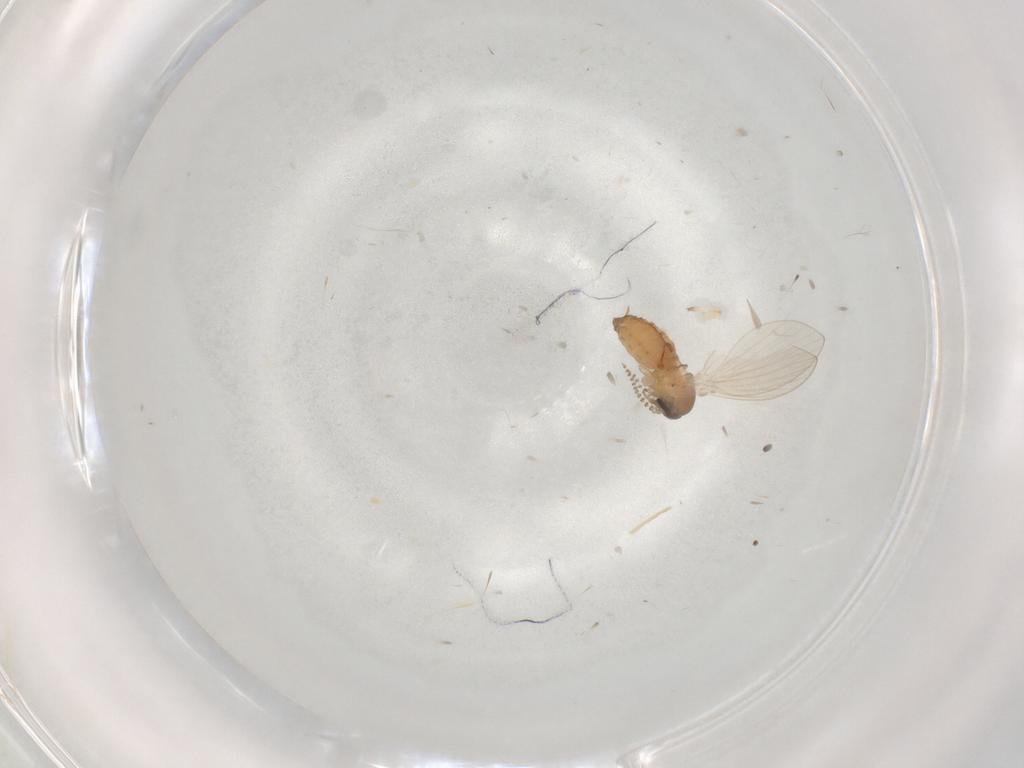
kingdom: Animalia
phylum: Arthropoda
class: Insecta
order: Diptera
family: Psychodidae
